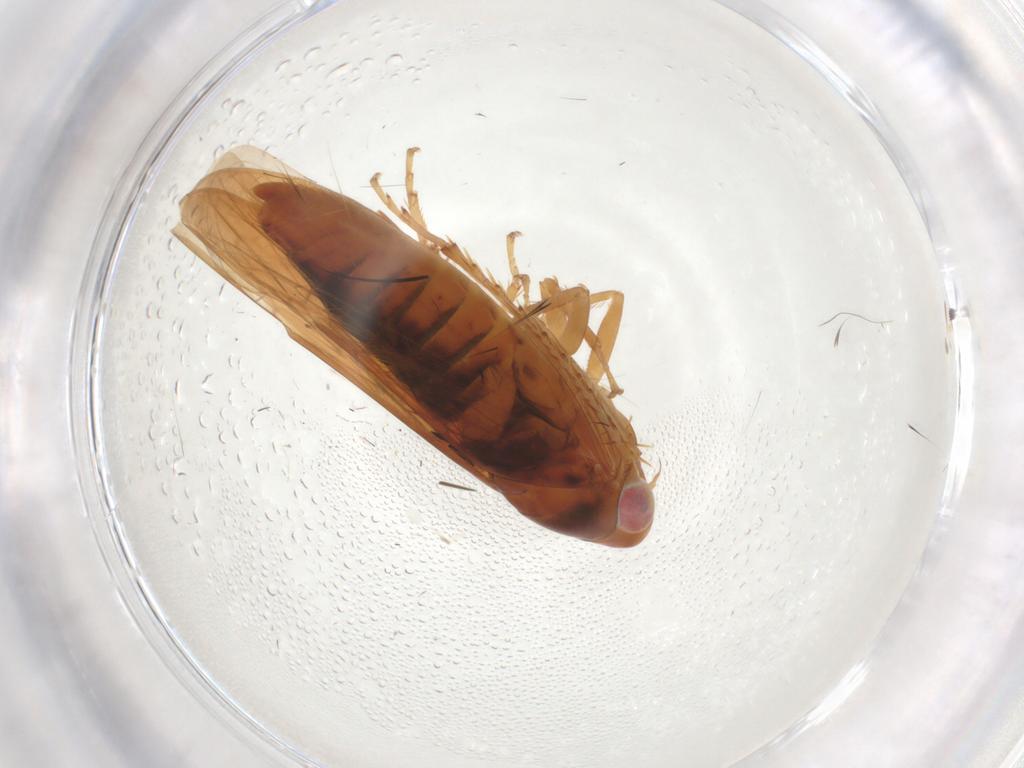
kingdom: Animalia
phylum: Arthropoda
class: Insecta
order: Hemiptera
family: Cicadellidae
